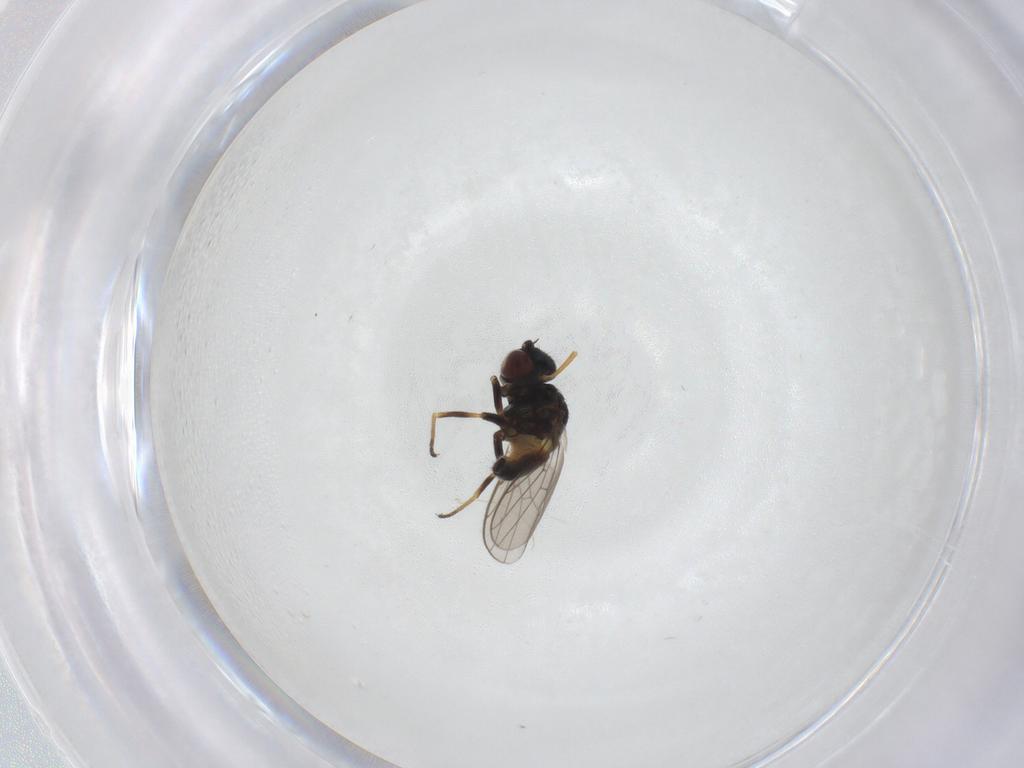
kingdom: Animalia
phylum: Arthropoda
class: Insecta
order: Diptera
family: Chloropidae
